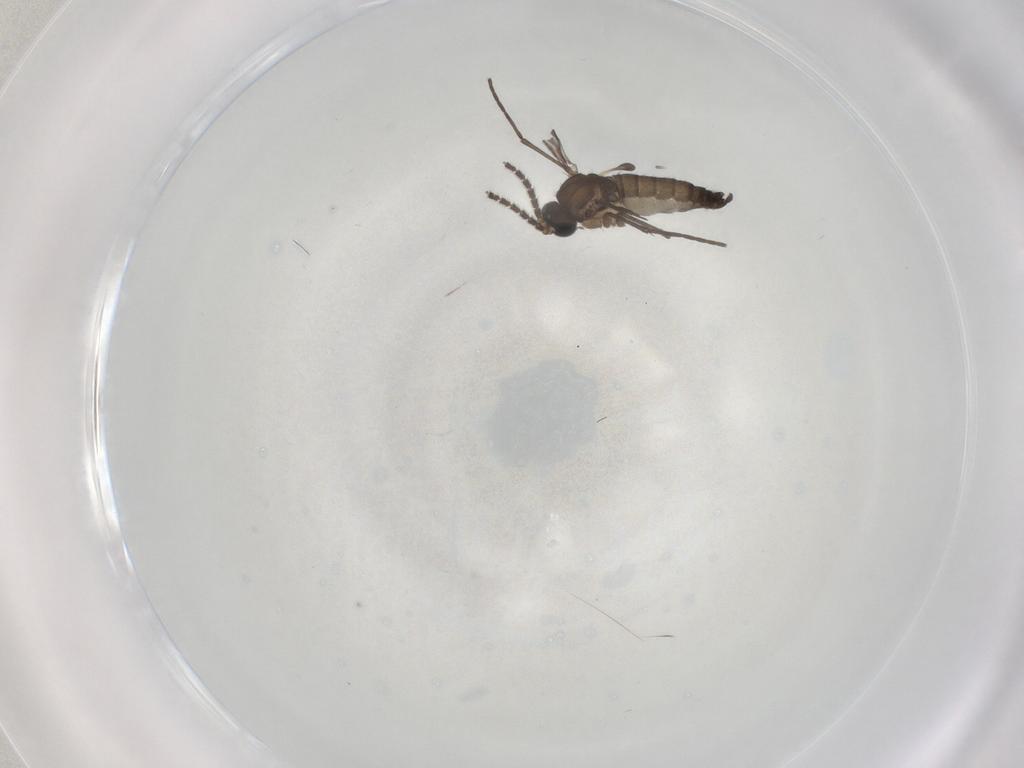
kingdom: Animalia
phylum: Arthropoda
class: Insecta
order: Diptera
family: Sciaridae
